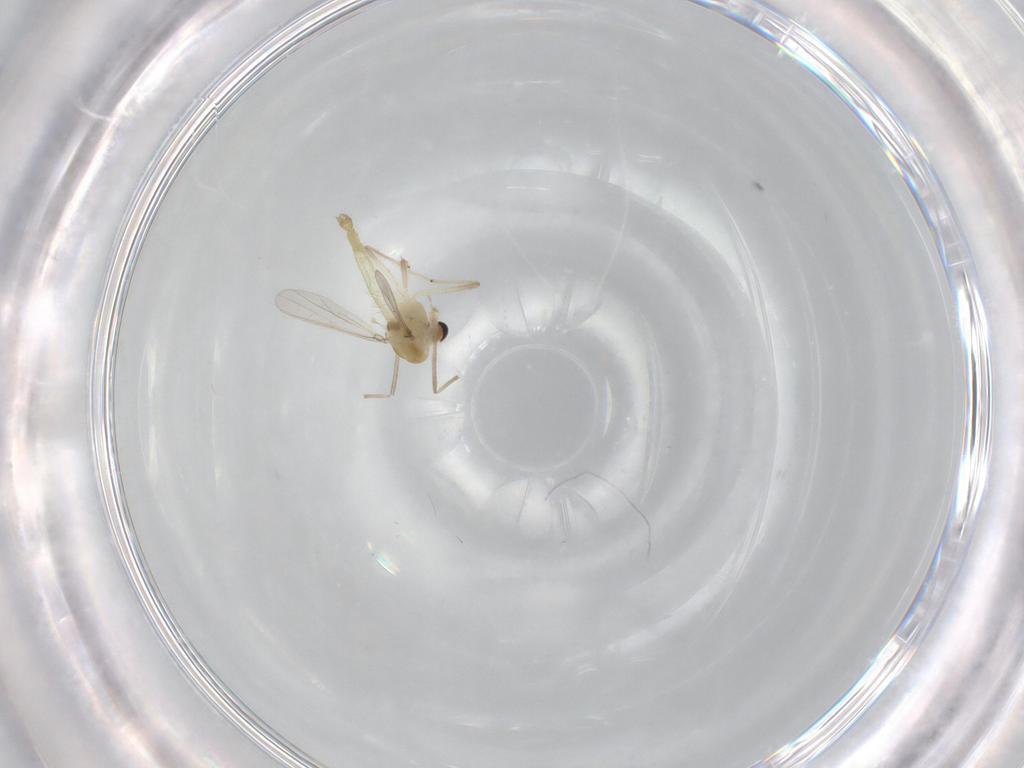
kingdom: Animalia
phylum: Arthropoda
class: Insecta
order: Diptera
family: Chironomidae
